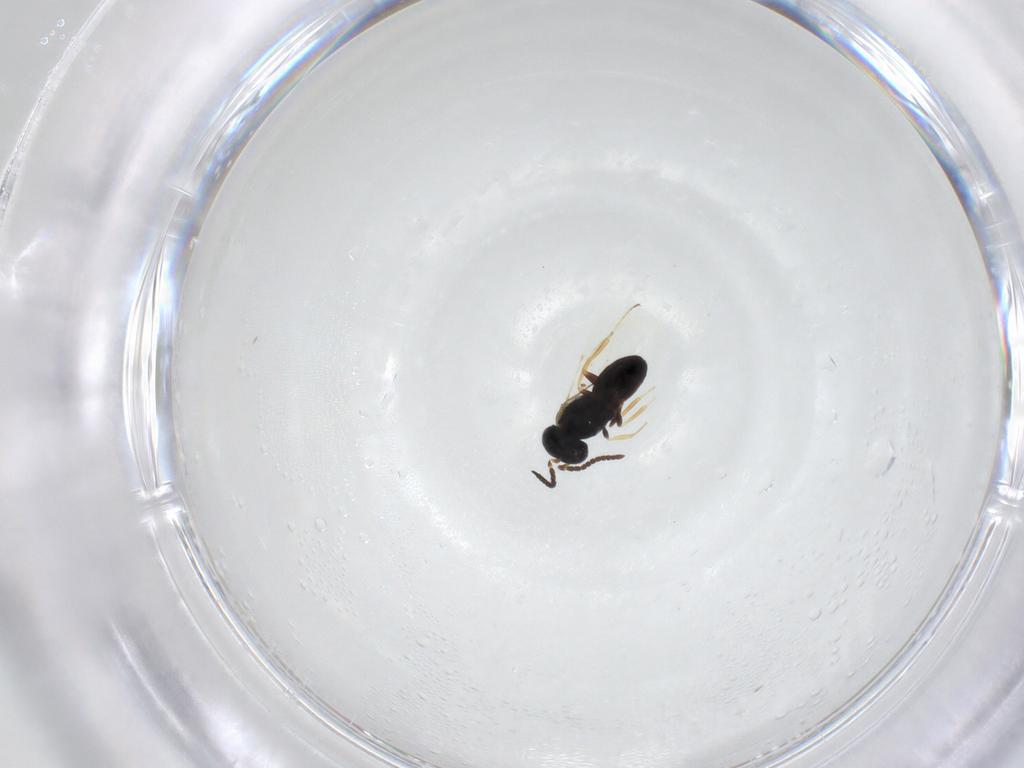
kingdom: Animalia
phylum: Arthropoda
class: Insecta
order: Hymenoptera
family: Scelionidae
